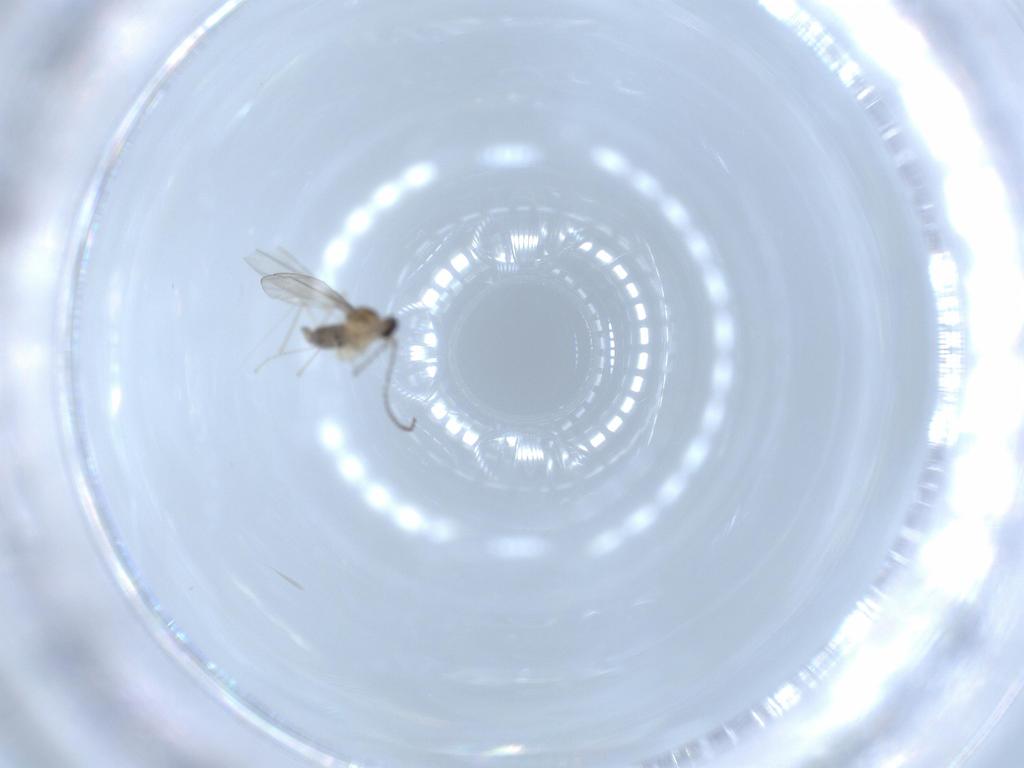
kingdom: Animalia
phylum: Arthropoda
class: Insecta
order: Diptera
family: Cecidomyiidae
